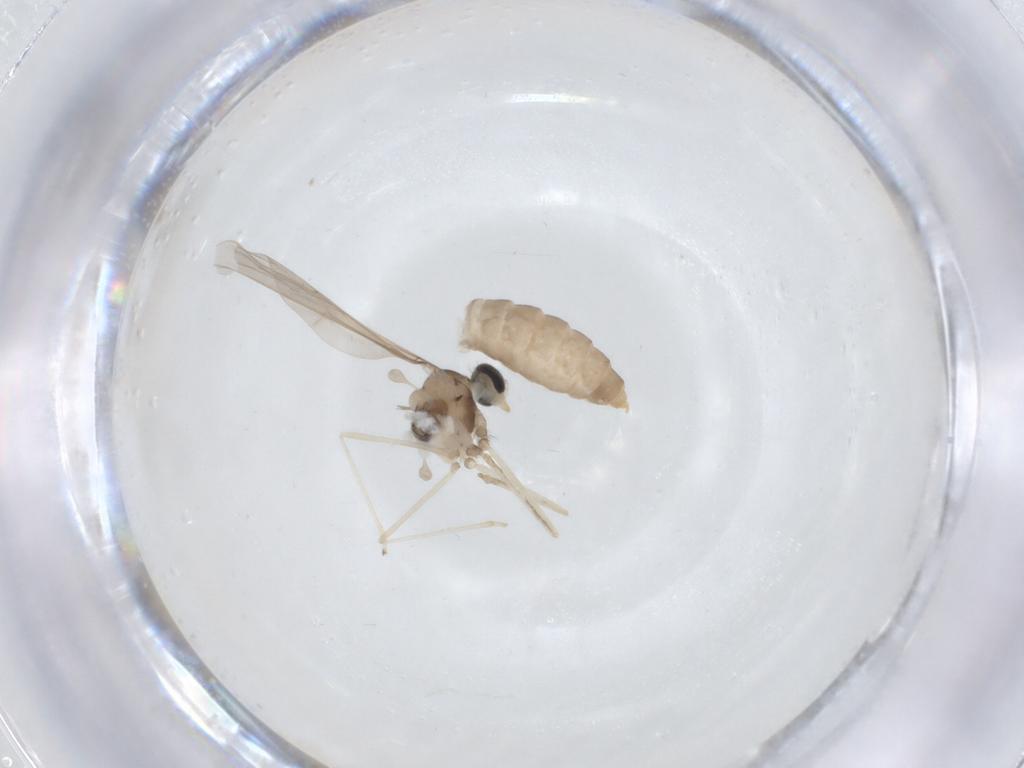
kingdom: Animalia
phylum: Arthropoda
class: Insecta
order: Diptera
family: Cecidomyiidae
